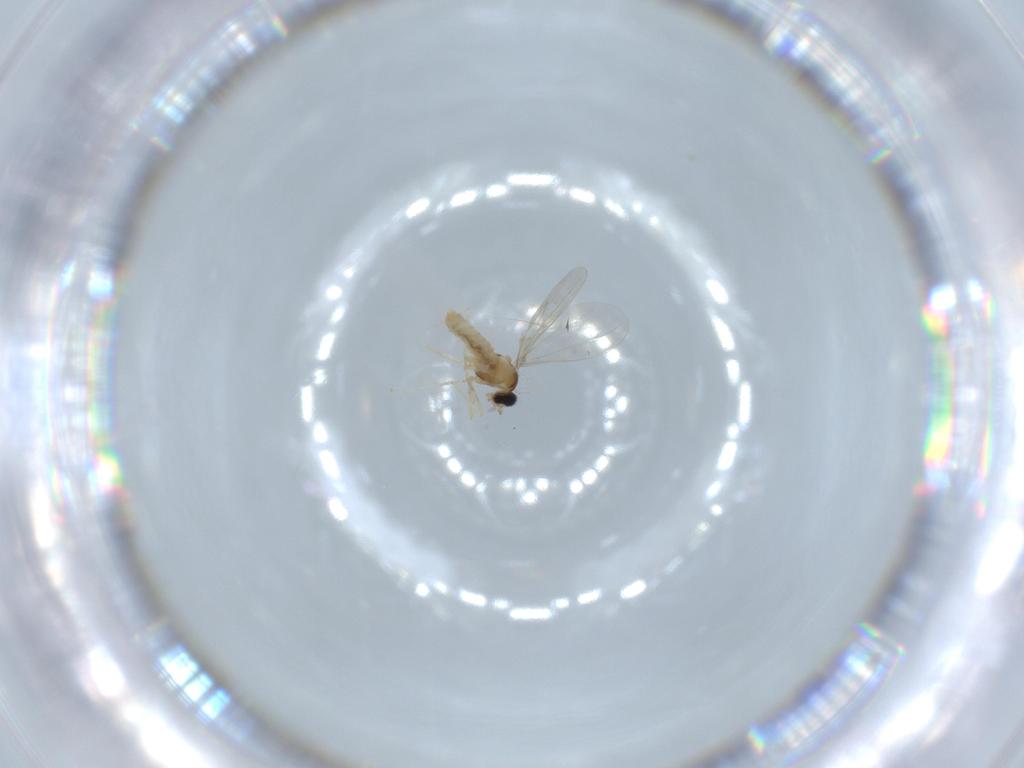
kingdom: Animalia
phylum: Arthropoda
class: Insecta
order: Diptera
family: Cecidomyiidae
